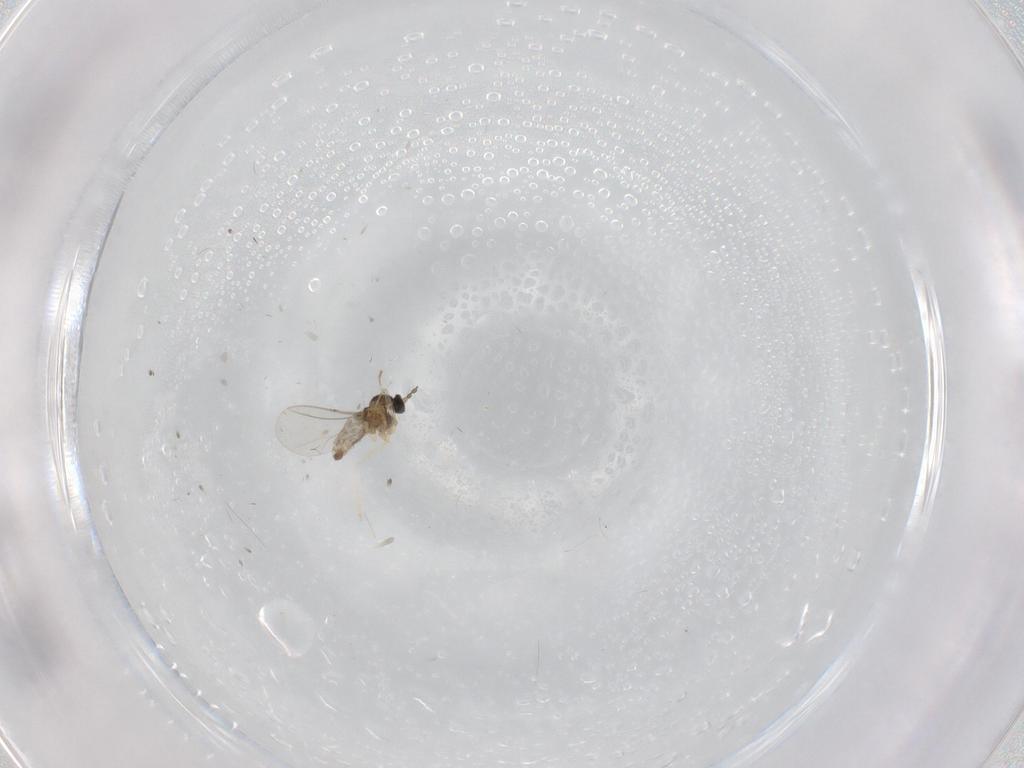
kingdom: Animalia
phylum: Arthropoda
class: Insecta
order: Diptera
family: Cecidomyiidae
